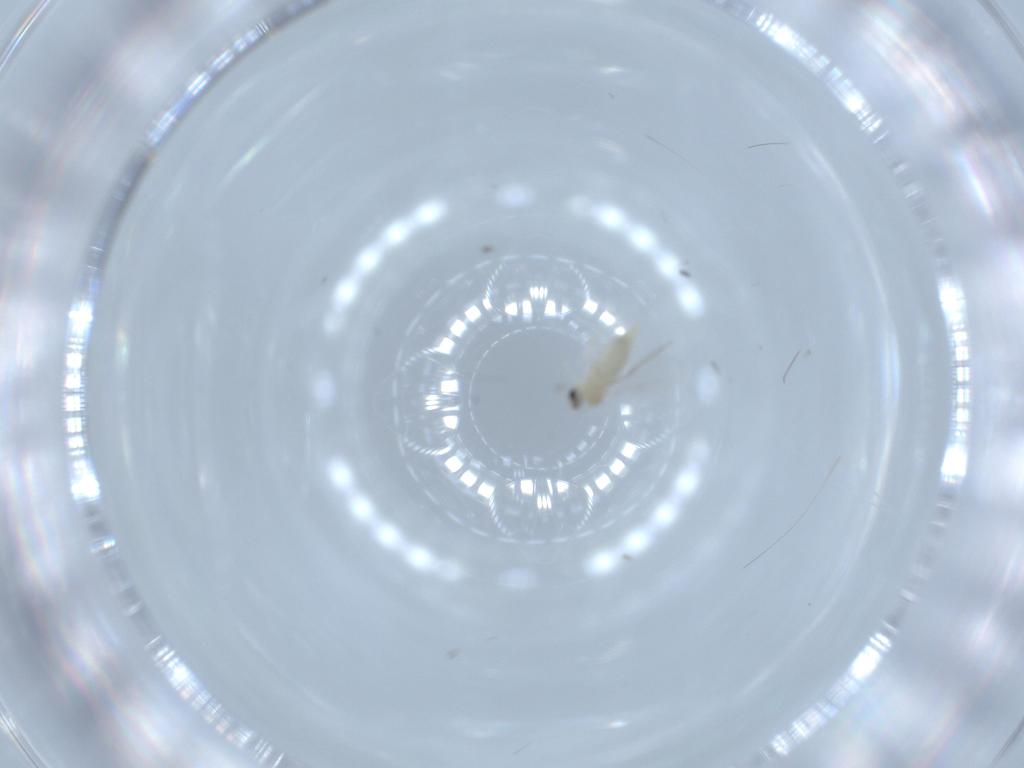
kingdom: Animalia
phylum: Arthropoda
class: Insecta
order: Diptera
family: Cecidomyiidae
